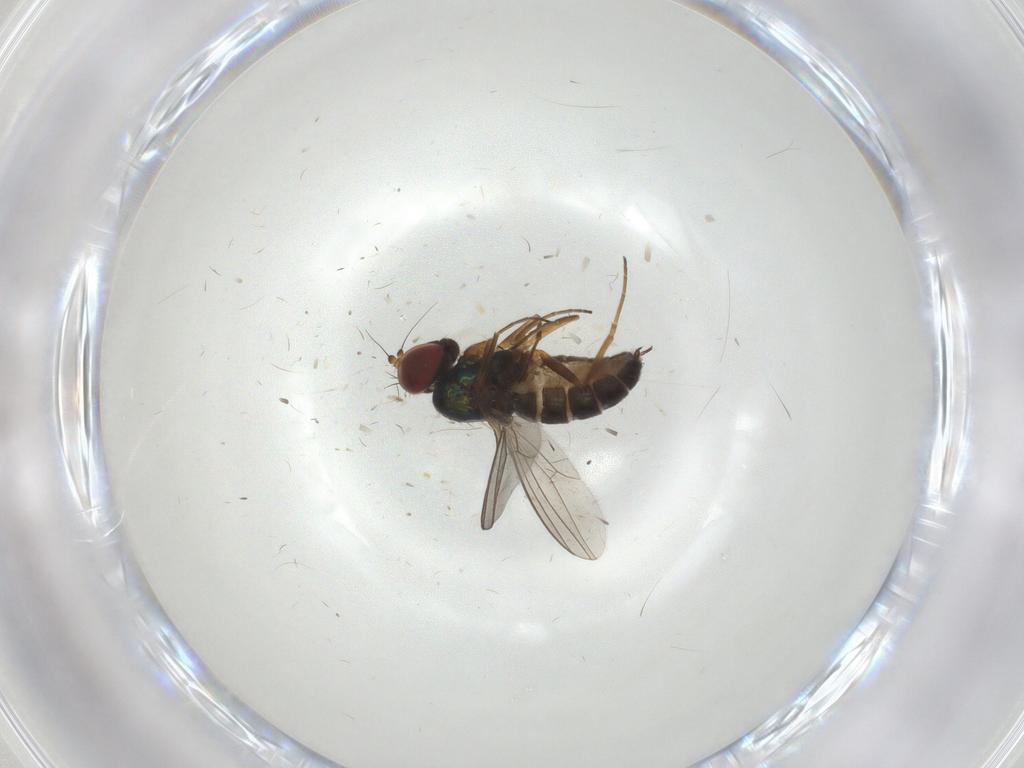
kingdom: Animalia
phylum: Arthropoda
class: Insecta
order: Diptera
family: Dolichopodidae
